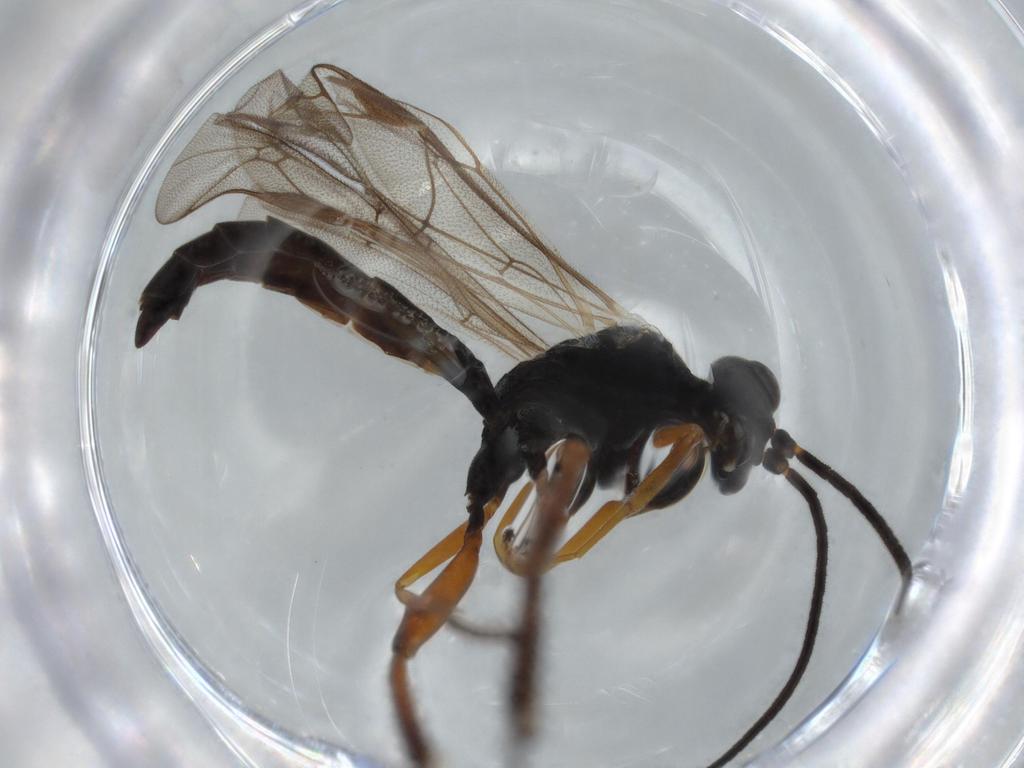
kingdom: Animalia
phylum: Arthropoda
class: Insecta
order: Hymenoptera
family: Ichneumonidae
